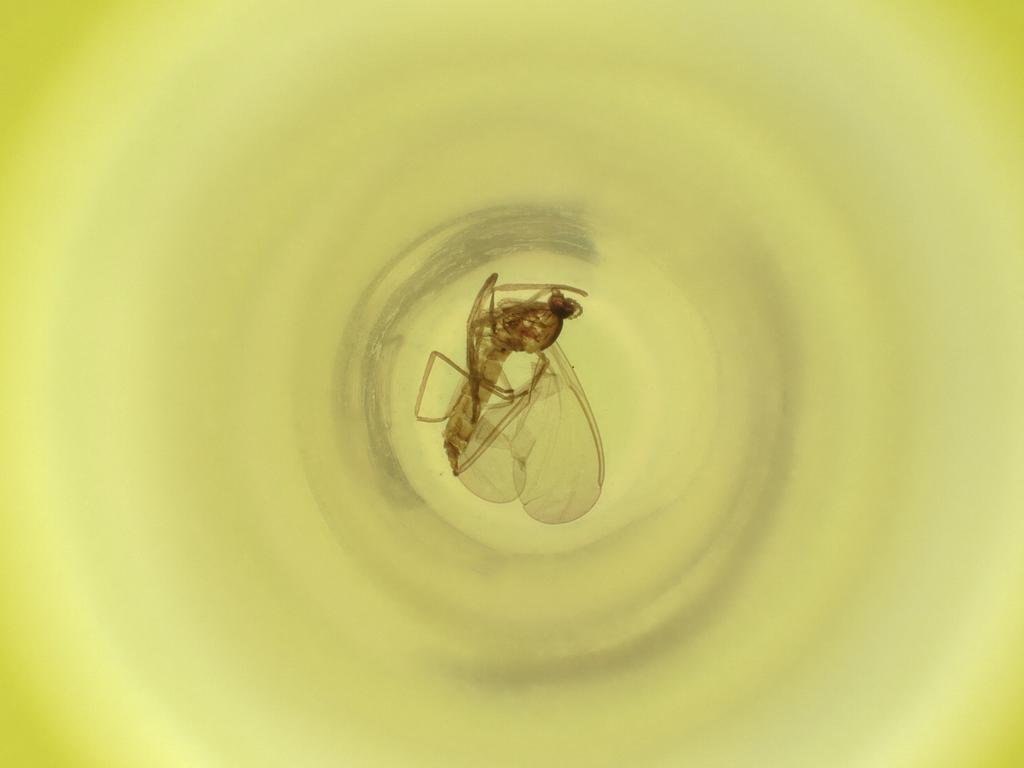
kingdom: Animalia
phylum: Arthropoda
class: Insecta
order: Diptera
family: Cecidomyiidae
